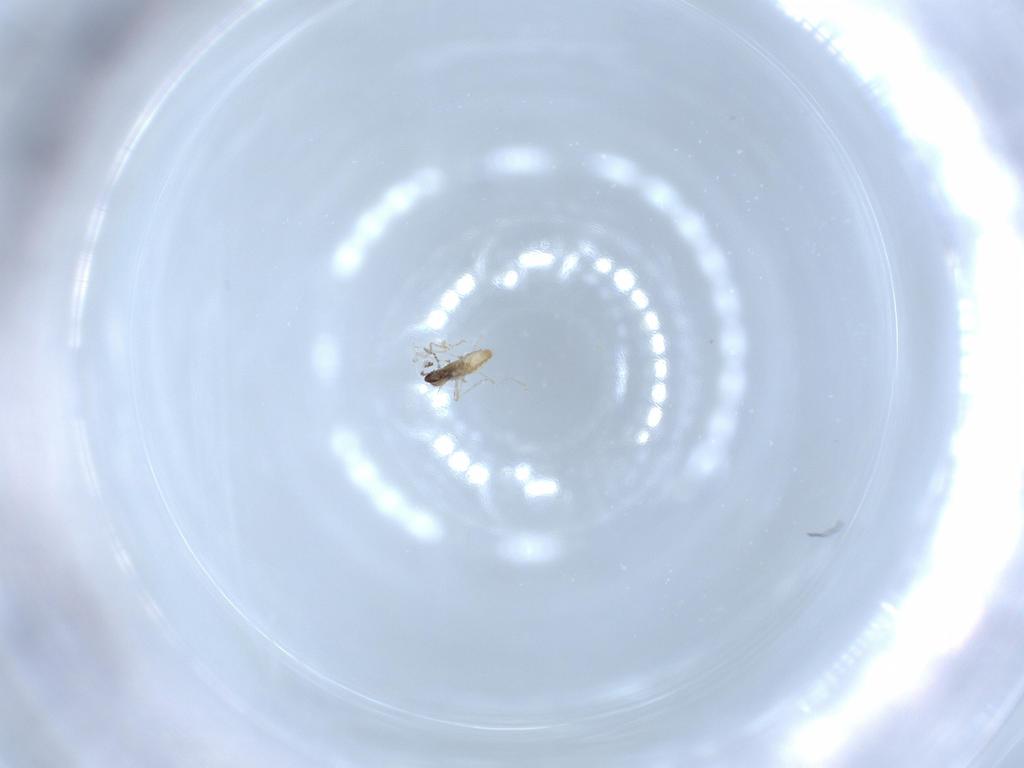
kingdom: Animalia
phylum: Arthropoda
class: Insecta
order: Diptera
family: Cecidomyiidae
